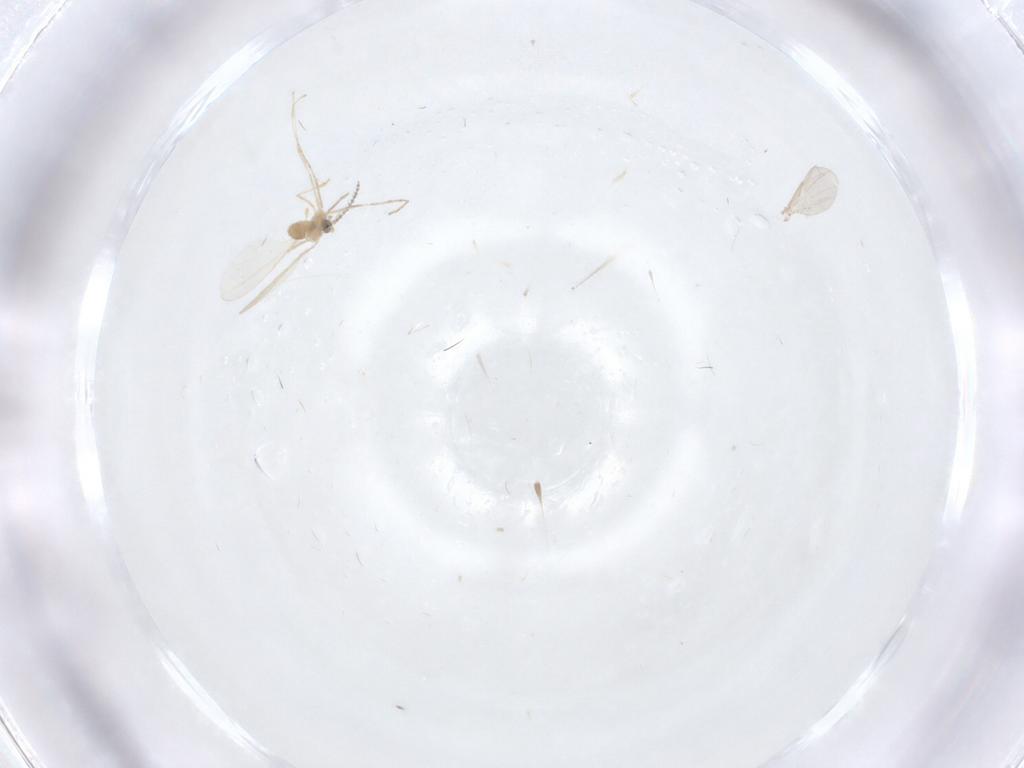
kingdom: Animalia
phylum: Arthropoda
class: Insecta
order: Diptera
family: Ceratopogonidae
